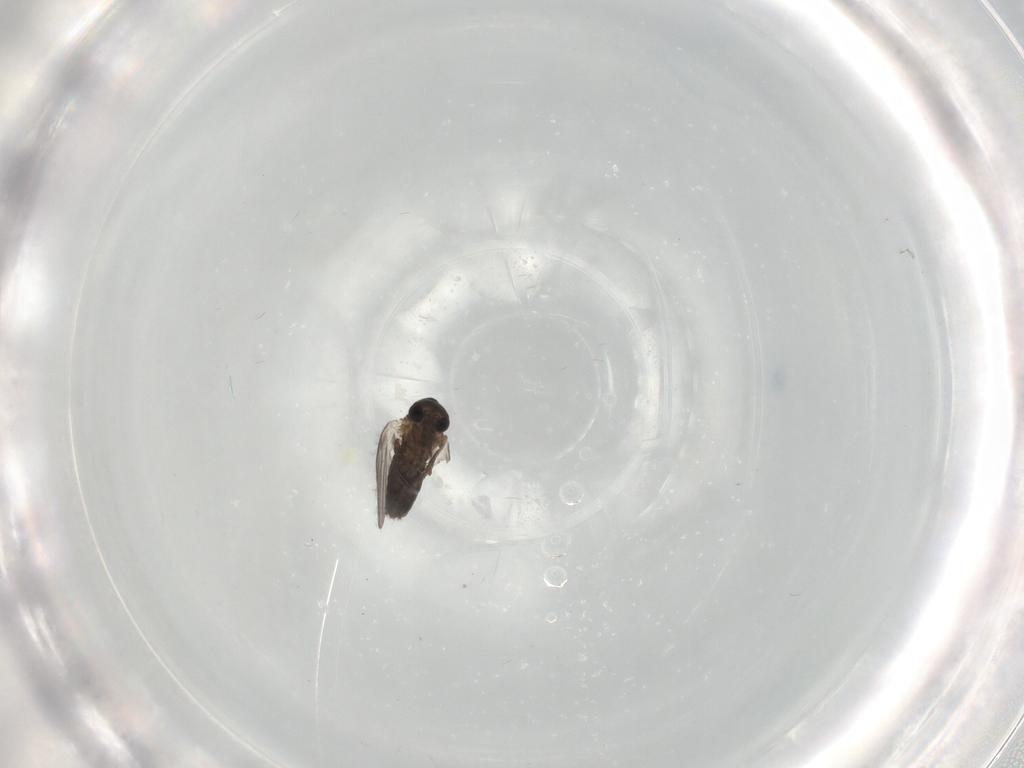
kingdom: Animalia
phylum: Arthropoda
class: Insecta
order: Diptera
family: Psychodidae
